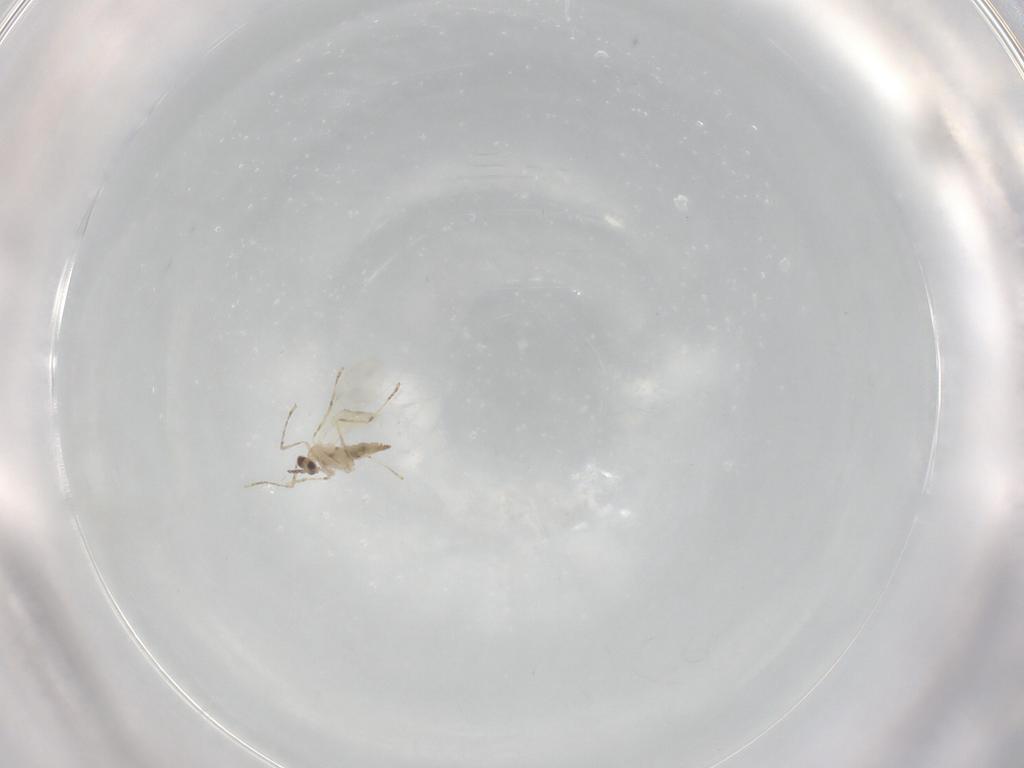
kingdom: Animalia
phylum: Arthropoda
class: Insecta
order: Diptera
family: Cecidomyiidae
